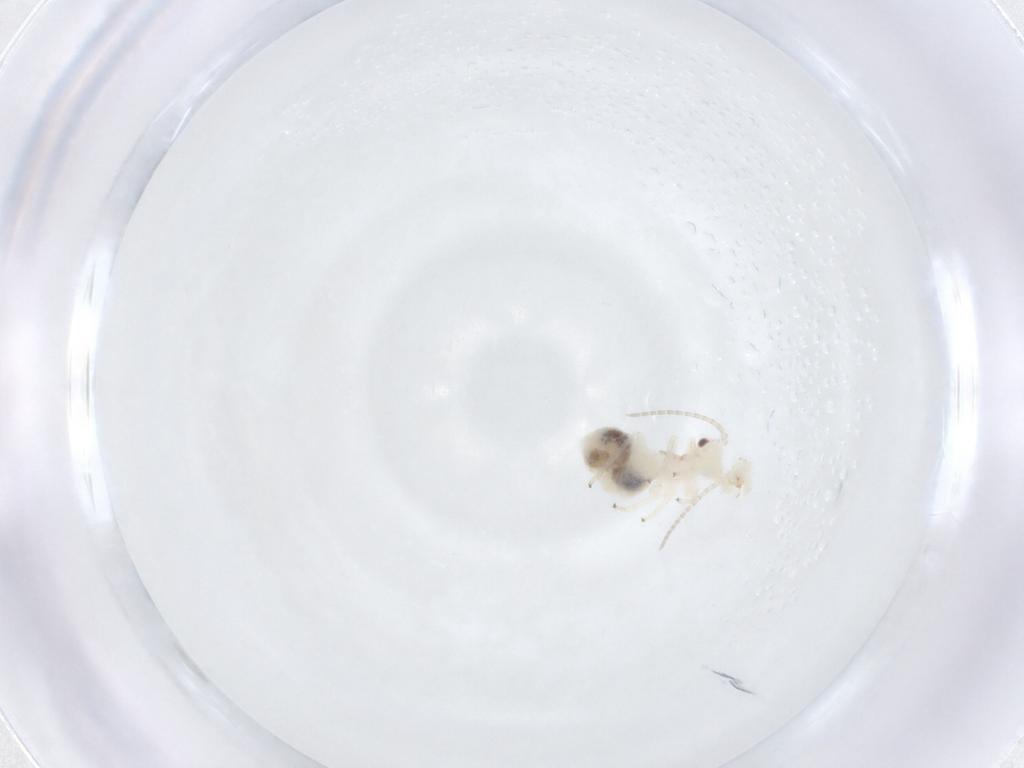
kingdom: Animalia
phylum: Arthropoda
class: Insecta
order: Psocodea
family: Amphipsocidae
